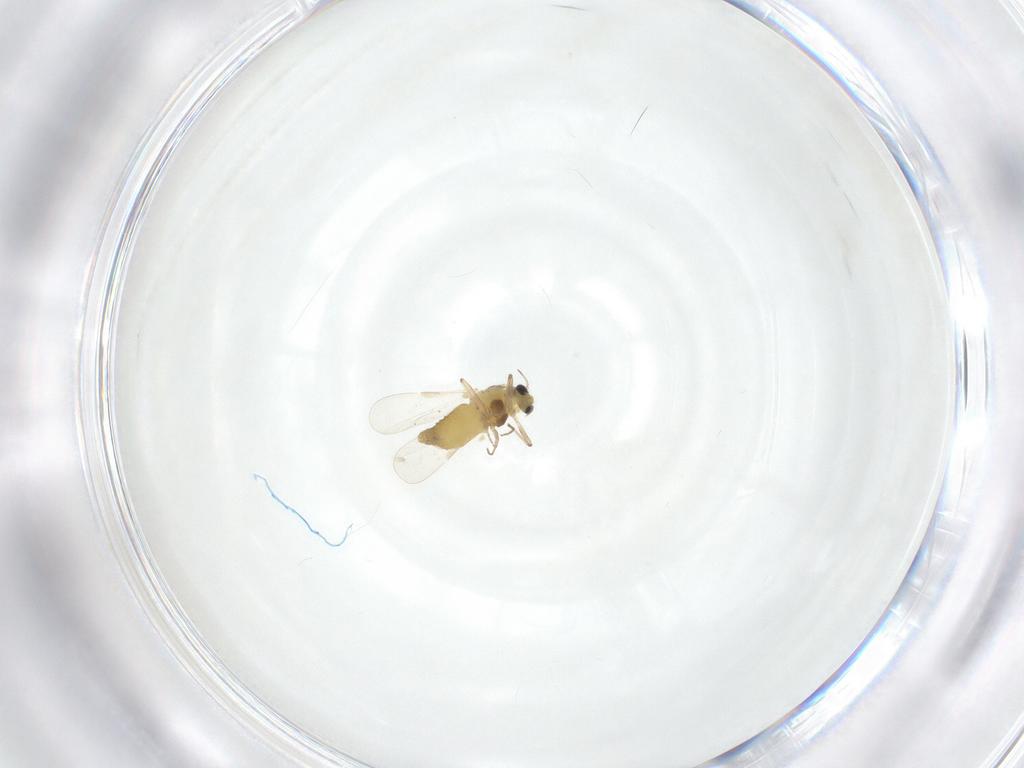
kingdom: Animalia
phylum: Arthropoda
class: Insecta
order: Diptera
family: Chironomidae
